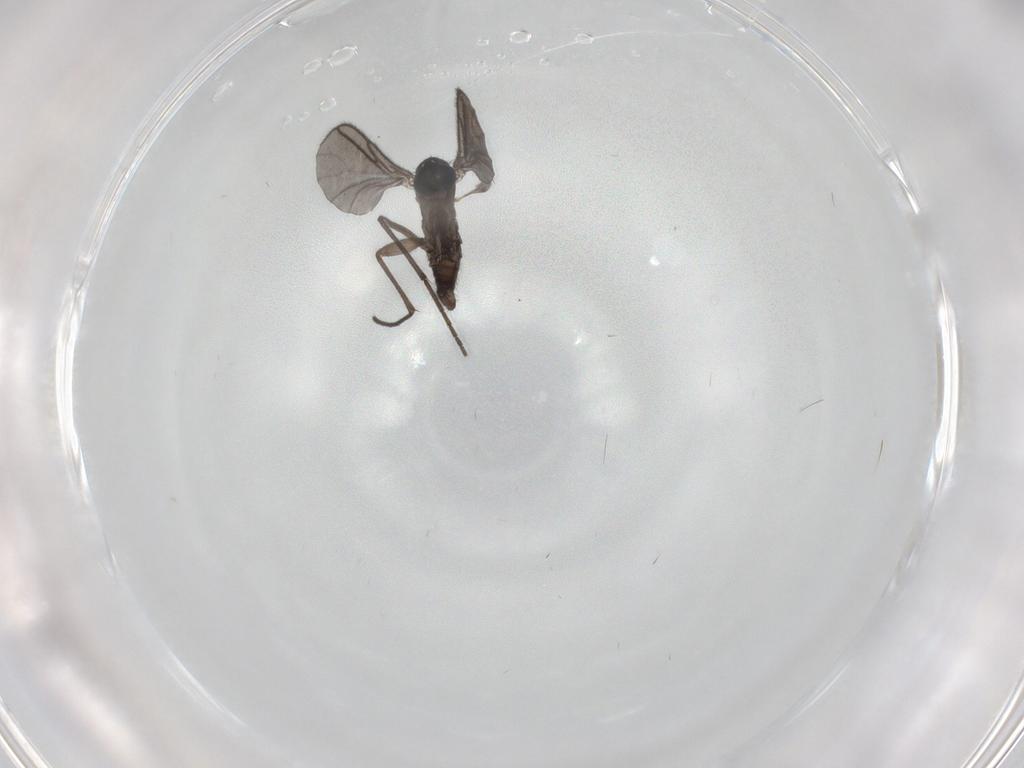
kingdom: Animalia
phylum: Arthropoda
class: Insecta
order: Diptera
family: Sciaridae
